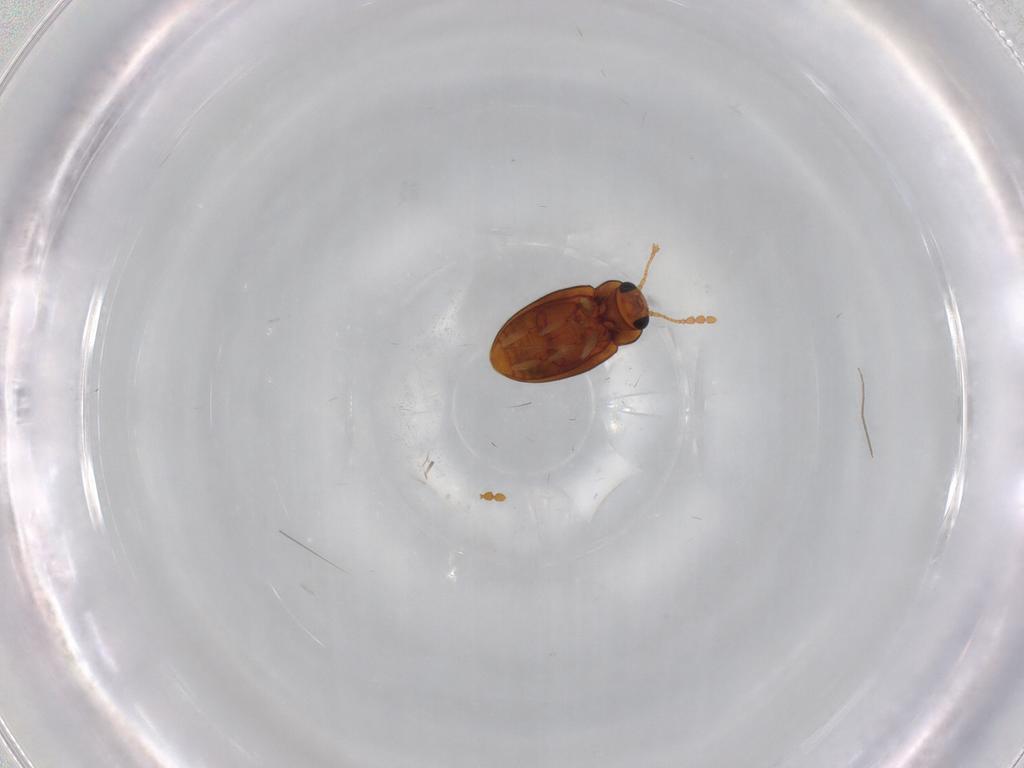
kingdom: Animalia
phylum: Arthropoda
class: Insecta
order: Coleoptera
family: Erotylidae
